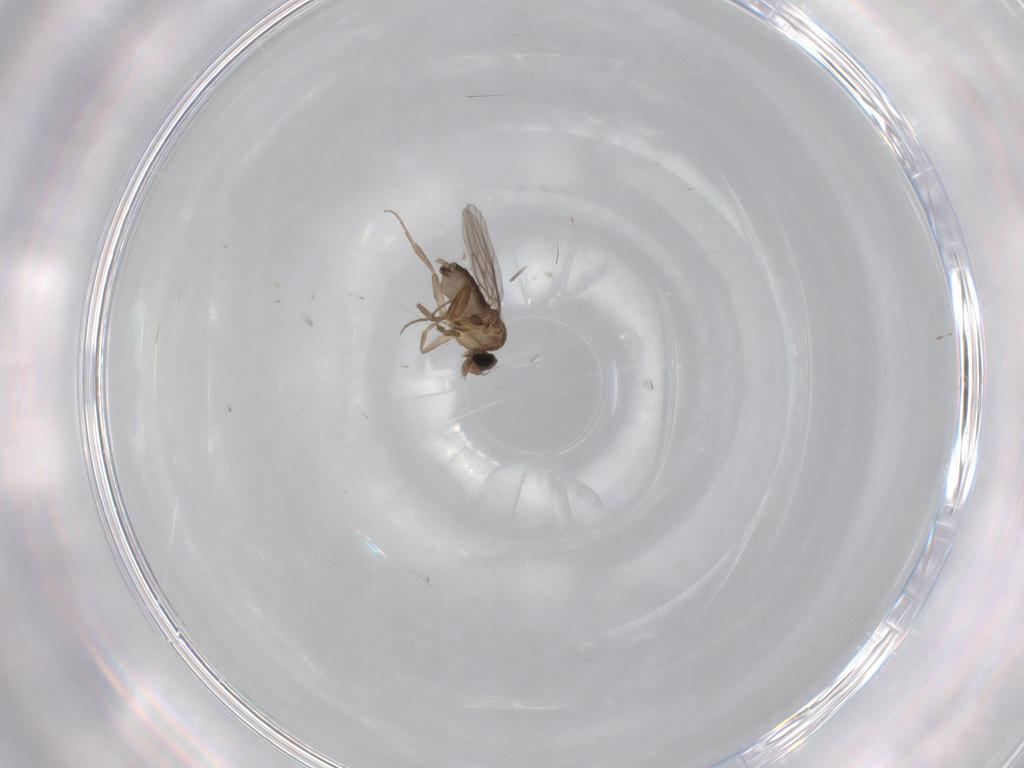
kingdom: Animalia
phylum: Arthropoda
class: Insecta
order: Diptera
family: Phoridae
